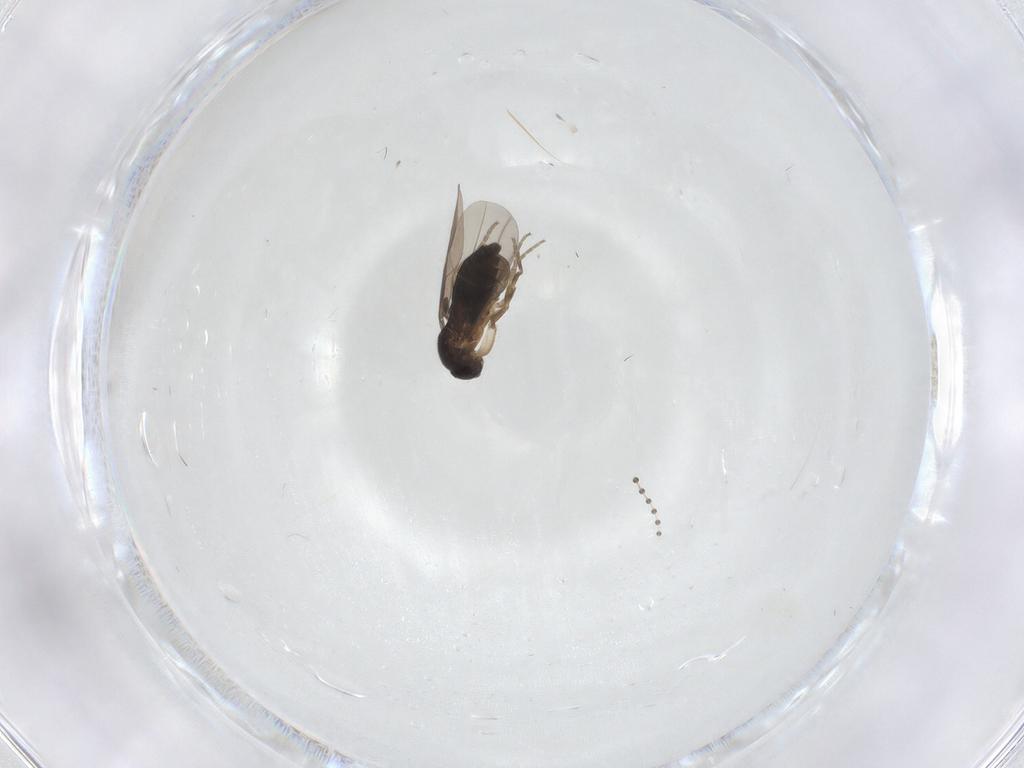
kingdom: Animalia
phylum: Arthropoda
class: Insecta
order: Diptera
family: Phoridae
